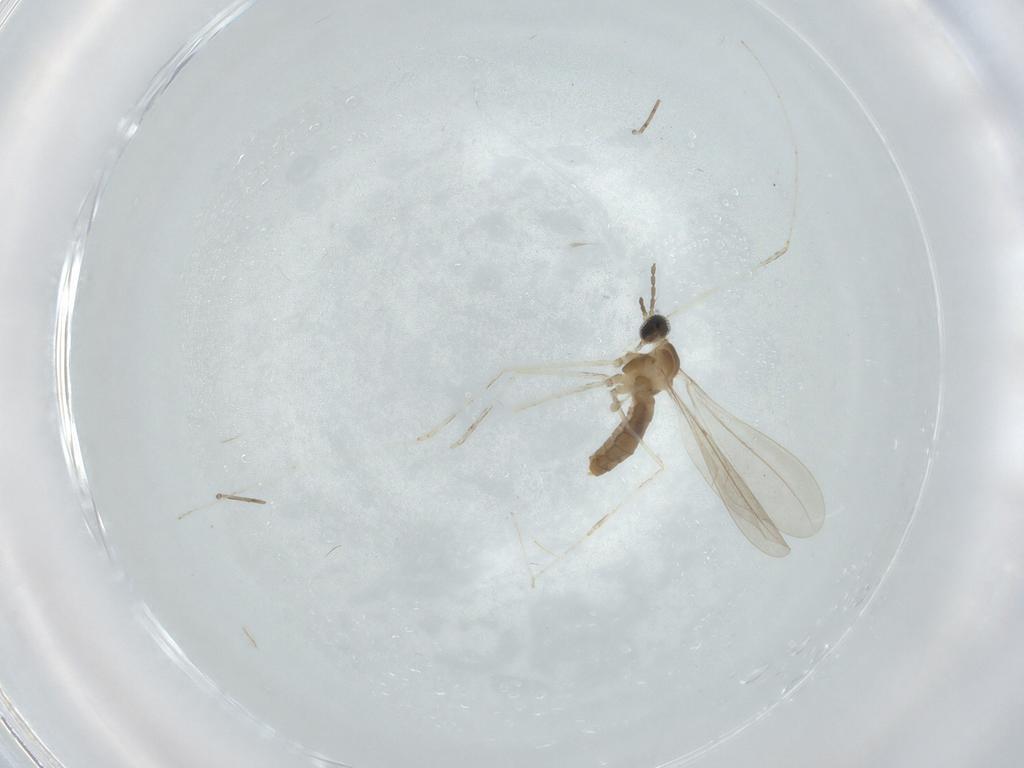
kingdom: Animalia
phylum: Arthropoda
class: Insecta
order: Diptera
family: Cecidomyiidae
